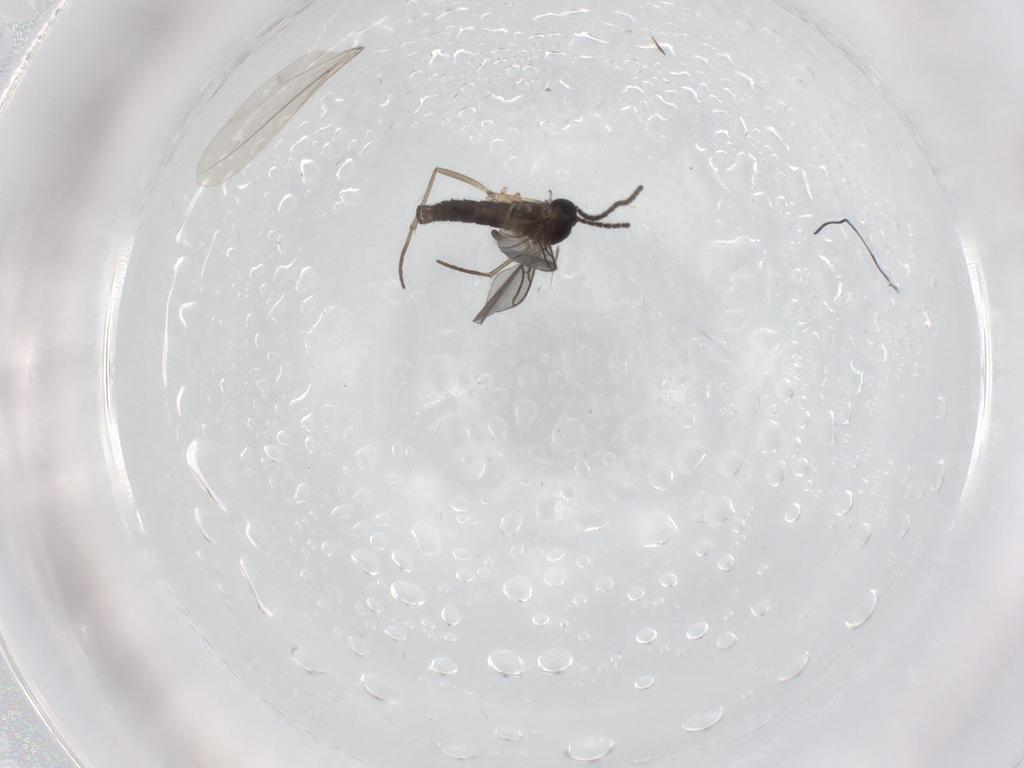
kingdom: Animalia
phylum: Arthropoda
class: Insecta
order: Diptera
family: Sciaridae
